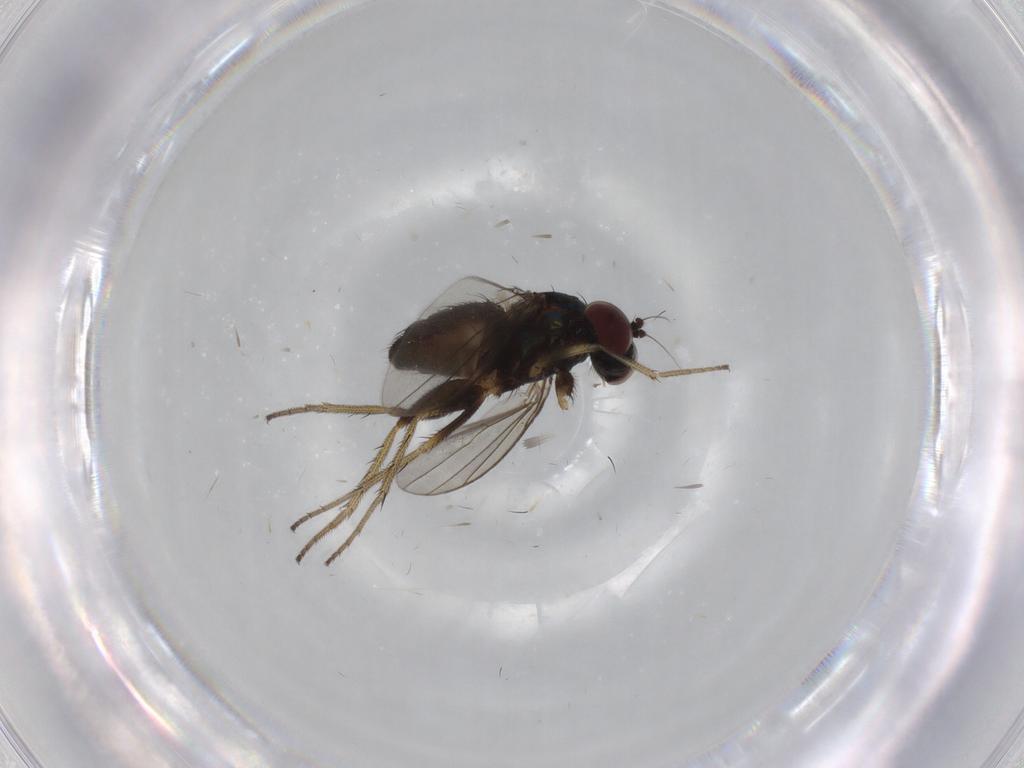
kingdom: Animalia
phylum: Arthropoda
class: Insecta
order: Diptera
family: Dolichopodidae
